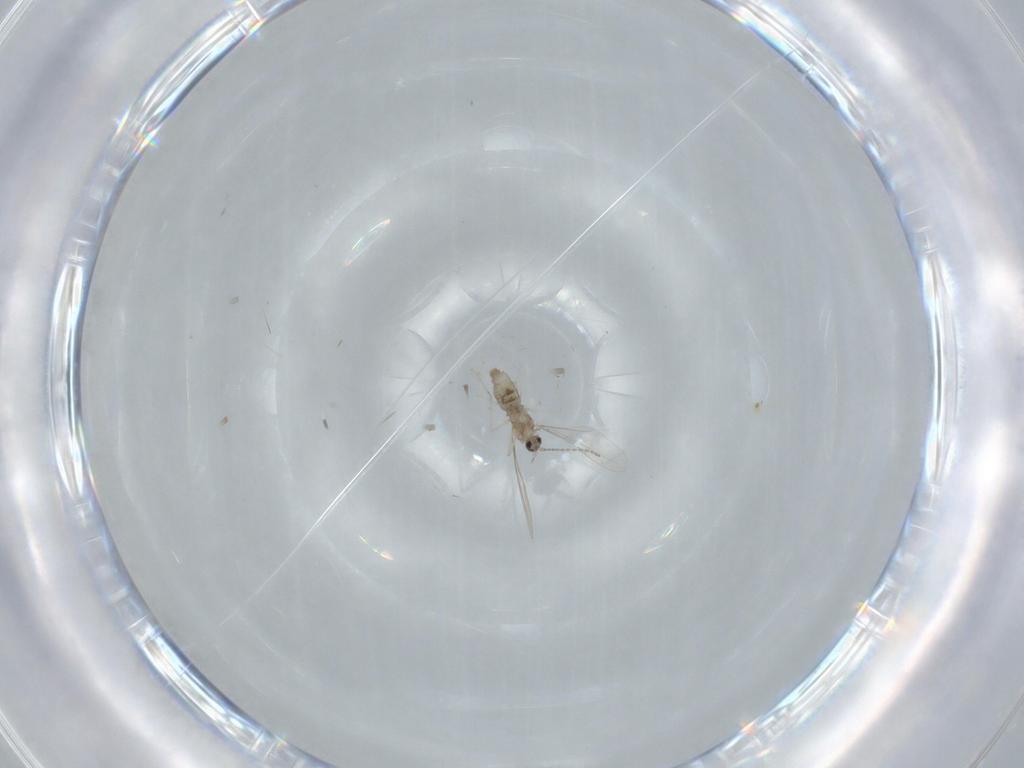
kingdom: Animalia
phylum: Arthropoda
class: Insecta
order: Diptera
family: Cecidomyiidae
